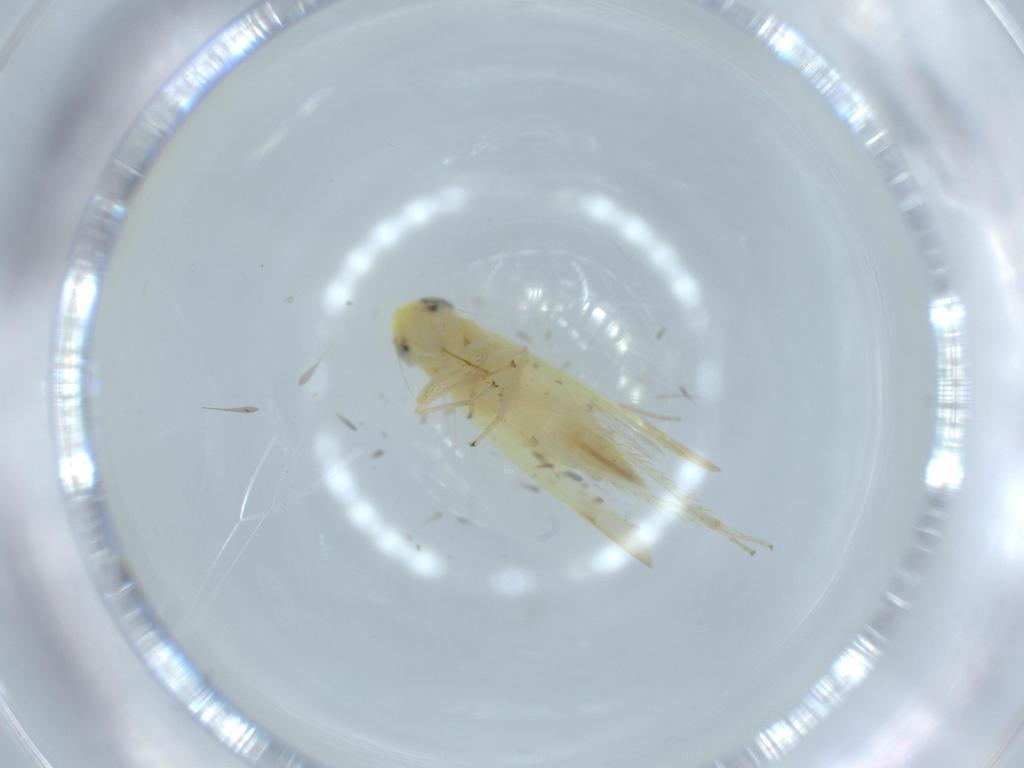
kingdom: Animalia
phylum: Arthropoda
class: Insecta
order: Hemiptera
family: Cicadellidae
